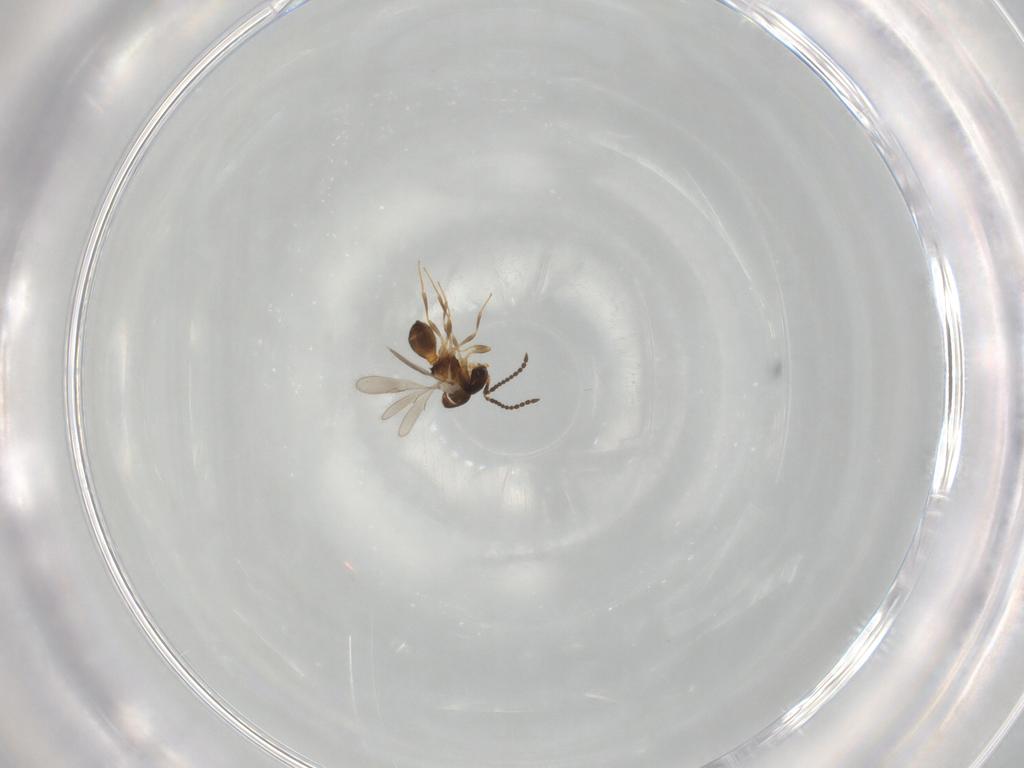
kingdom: Animalia
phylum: Arthropoda
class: Insecta
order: Hymenoptera
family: Scelionidae
